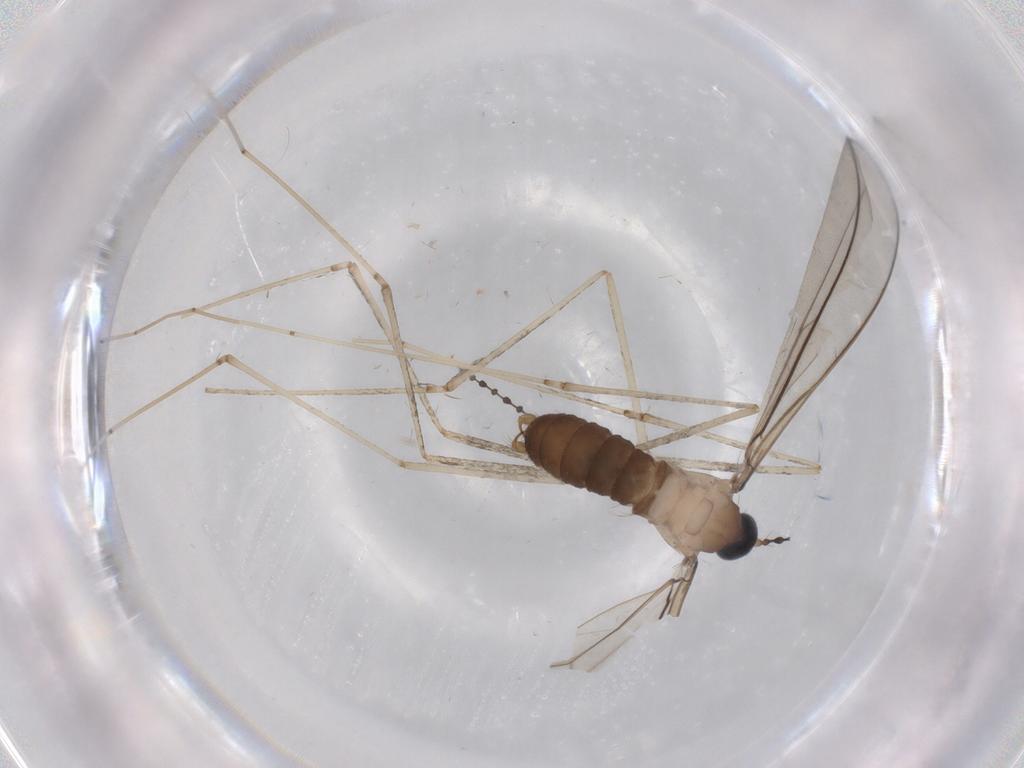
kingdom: Animalia
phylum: Arthropoda
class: Insecta
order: Diptera
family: Cecidomyiidae
